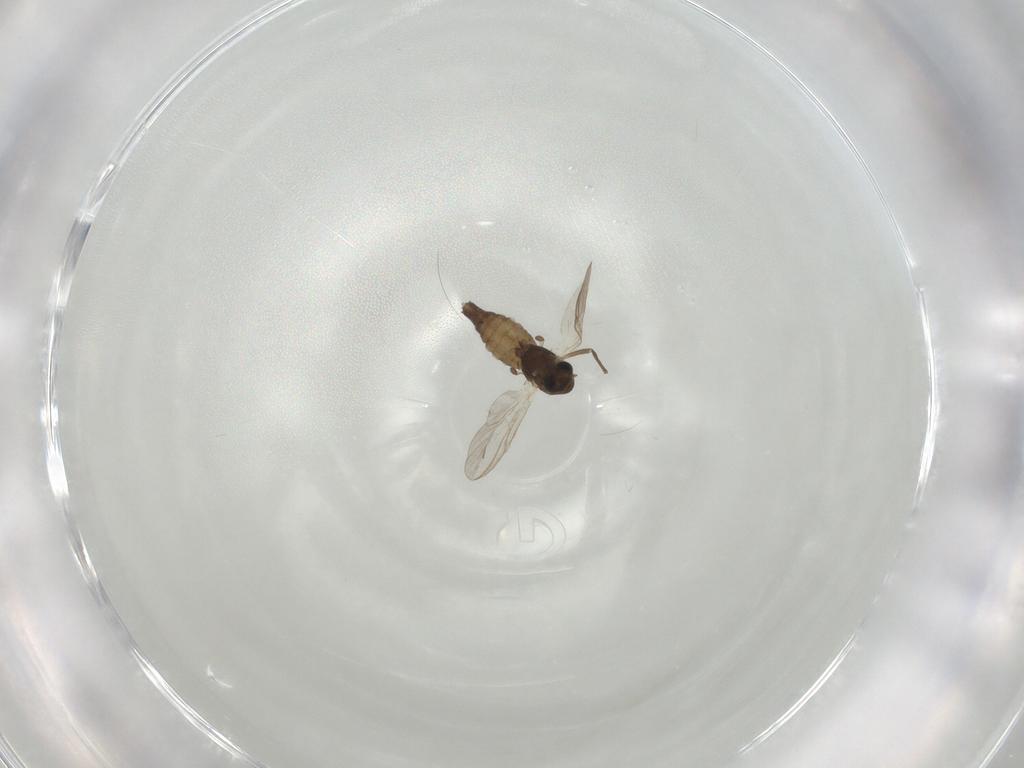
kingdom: Animalia
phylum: Arthropoda
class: Insecta
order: Diptera
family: Chironomidae
